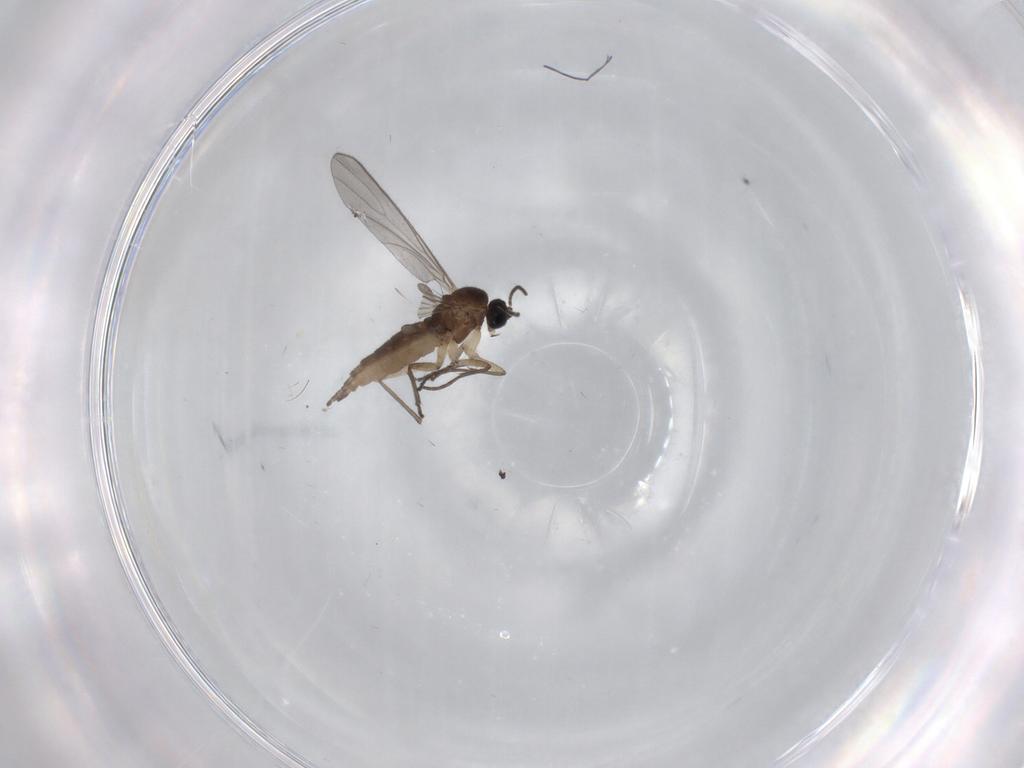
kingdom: Animalia
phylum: Arthropoda
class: Insecta
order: Diptera
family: Sciaridae
